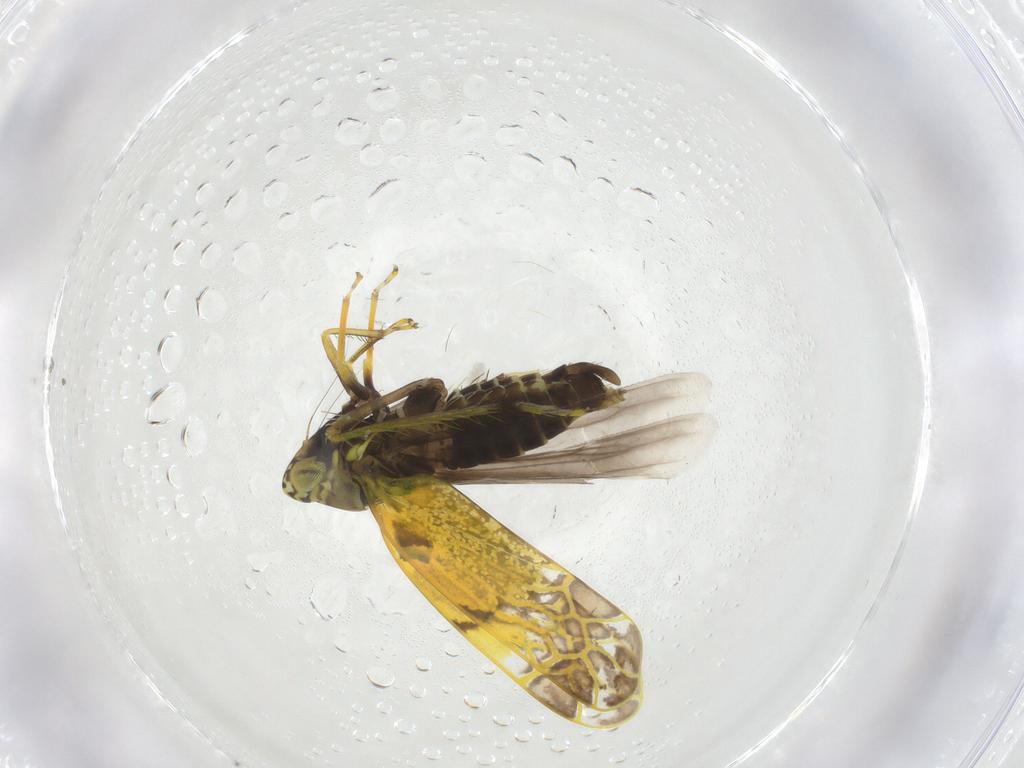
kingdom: Animalia
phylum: Arthropoda
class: Insecta
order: Hemiptera
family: Cicadellidae
